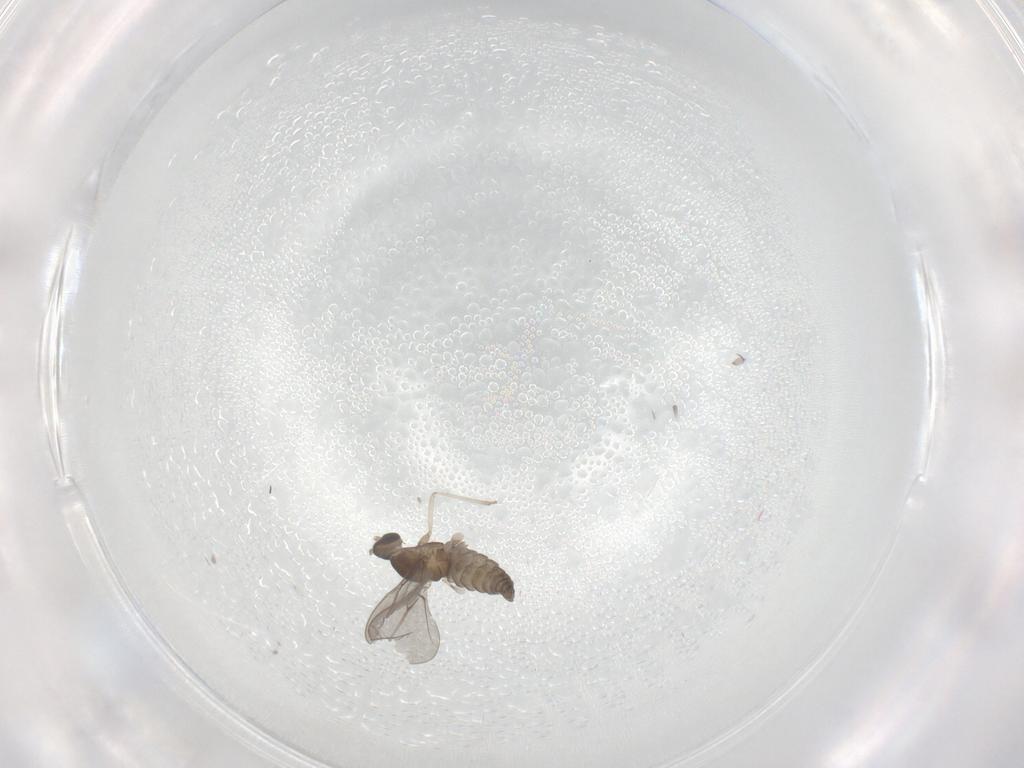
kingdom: Animalia
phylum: Arthropoda
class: Insecta
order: Diptera
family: Cecidomyiidae
